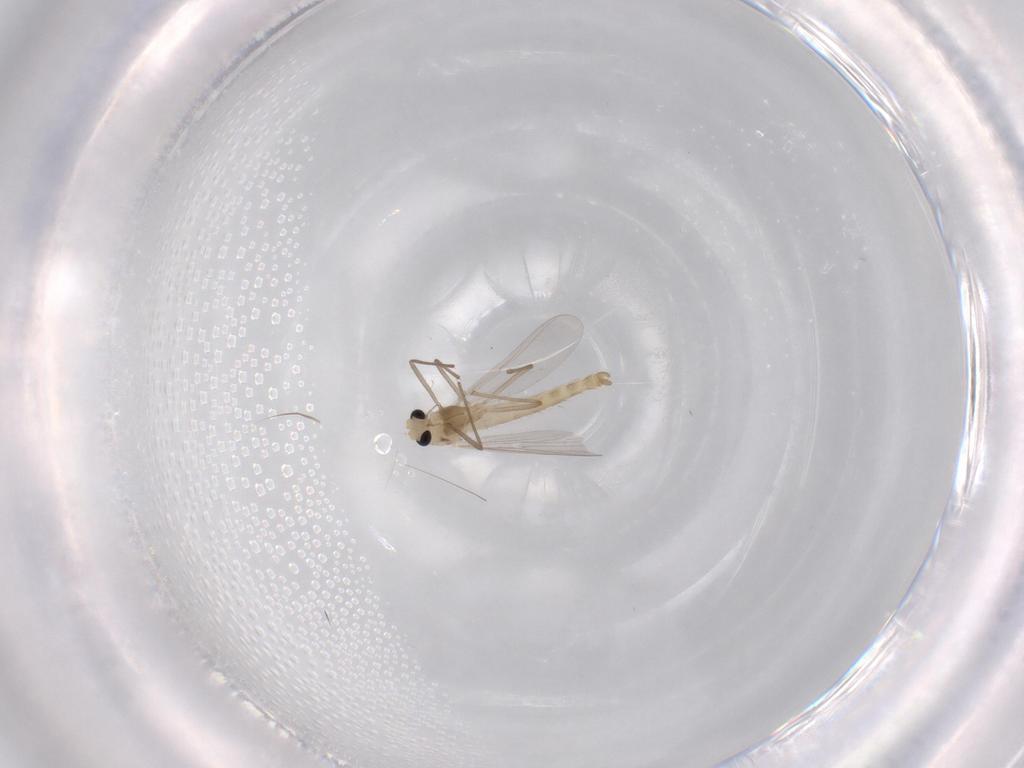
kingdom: Animalia
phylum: Arthropoda
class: Insecta
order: Diptera
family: Chironomidae
